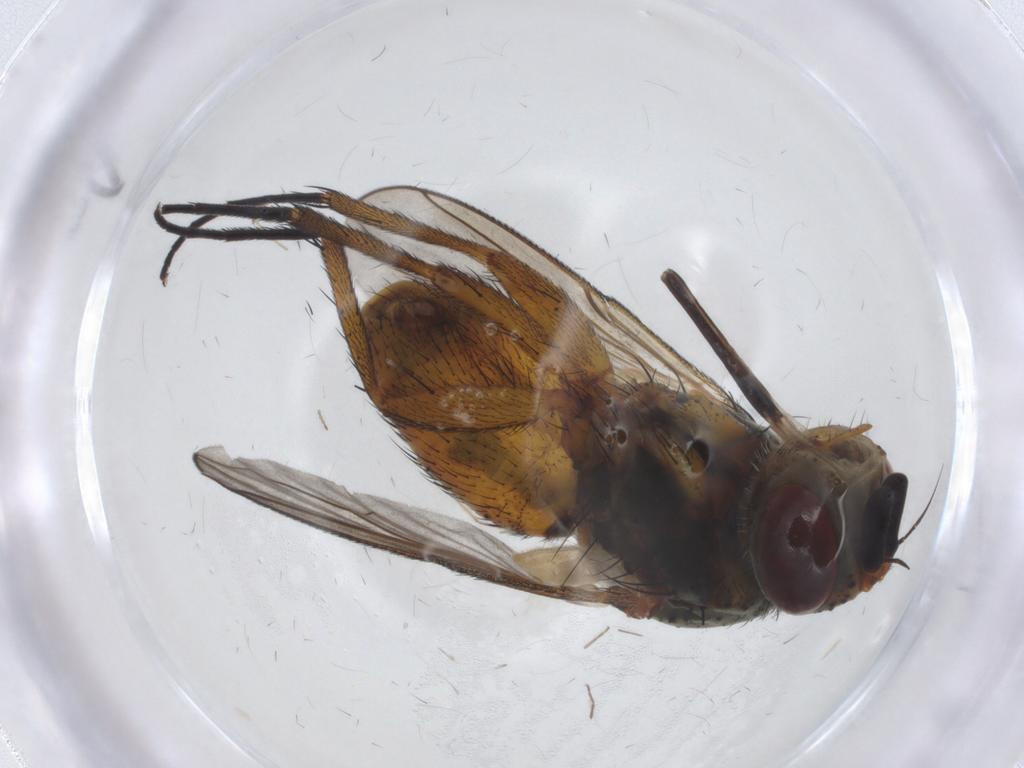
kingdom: Animalia
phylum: Arthropoda
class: Insecta
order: Diptera
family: Tachinidae
